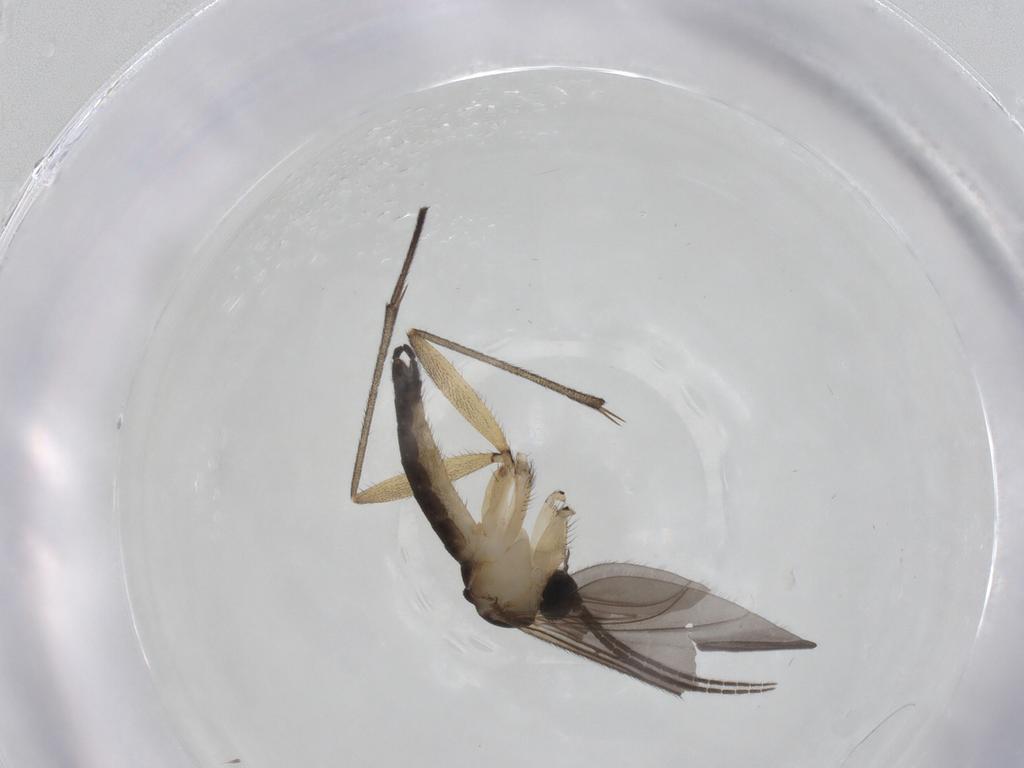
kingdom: Animalia
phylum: Arthropoda
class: Insecta
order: Diptera
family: Sciaridae
